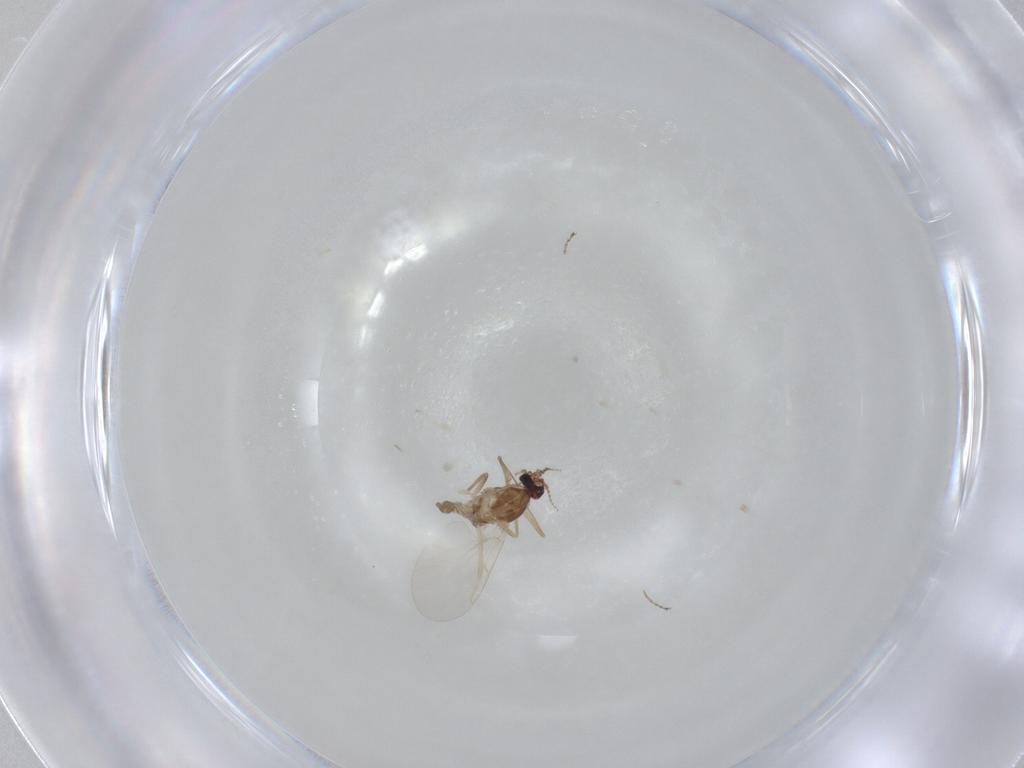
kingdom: Animalia
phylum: Arthropoda
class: Insecta
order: Diptera
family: Cecidomyiidae
